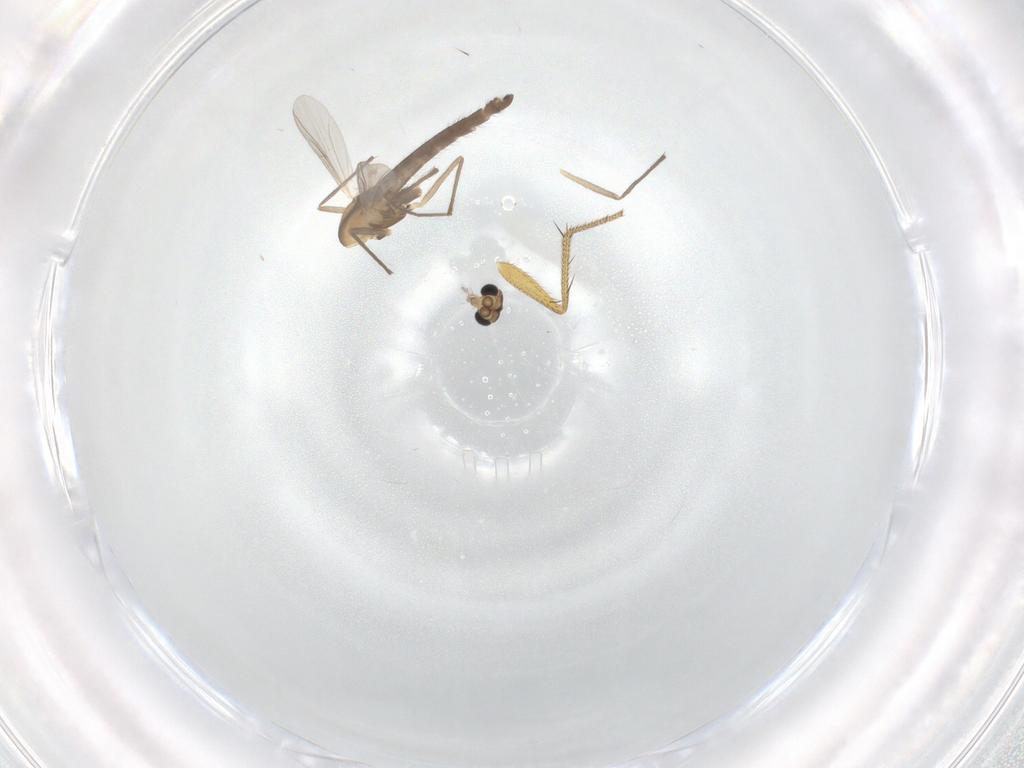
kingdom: Animalia
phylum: Arthropoda
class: Insecta
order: Diptera
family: Chironomidae
